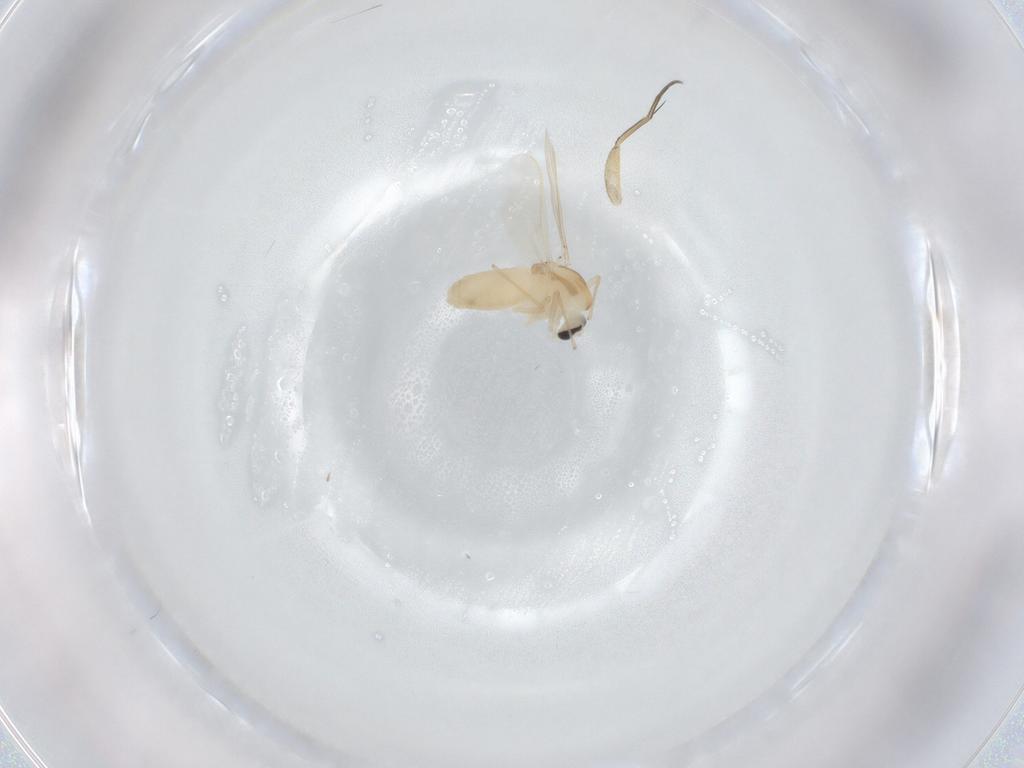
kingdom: Animalia
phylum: Arthropoda
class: Insecta
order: Diptera
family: Chironomidae
